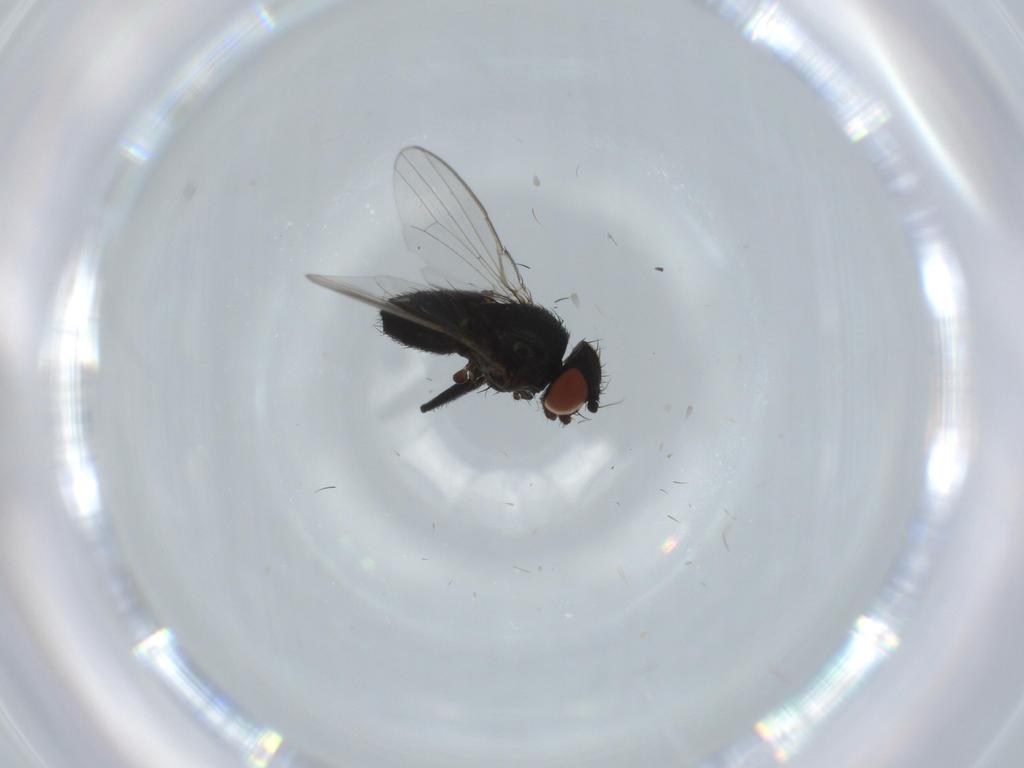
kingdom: Animalia
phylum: Arthropoda
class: Insecta
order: Diptera
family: Milichiidae
